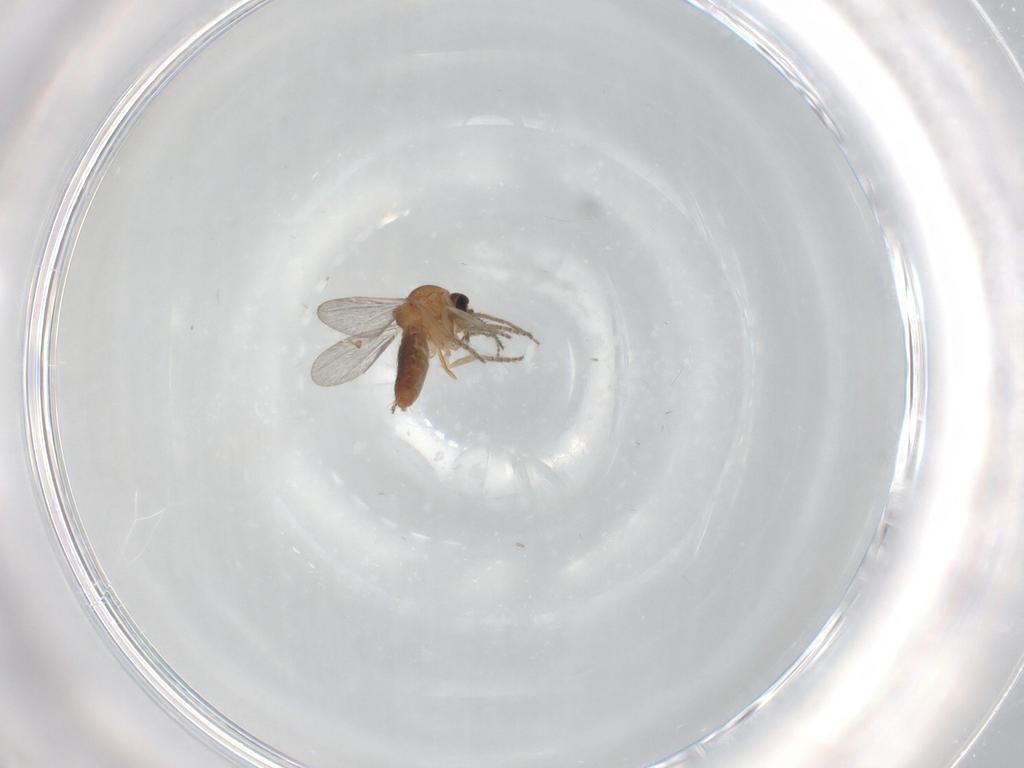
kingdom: Animalia
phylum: Arthropoda
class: Insecta
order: Diptera
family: Ceratopogonidae
